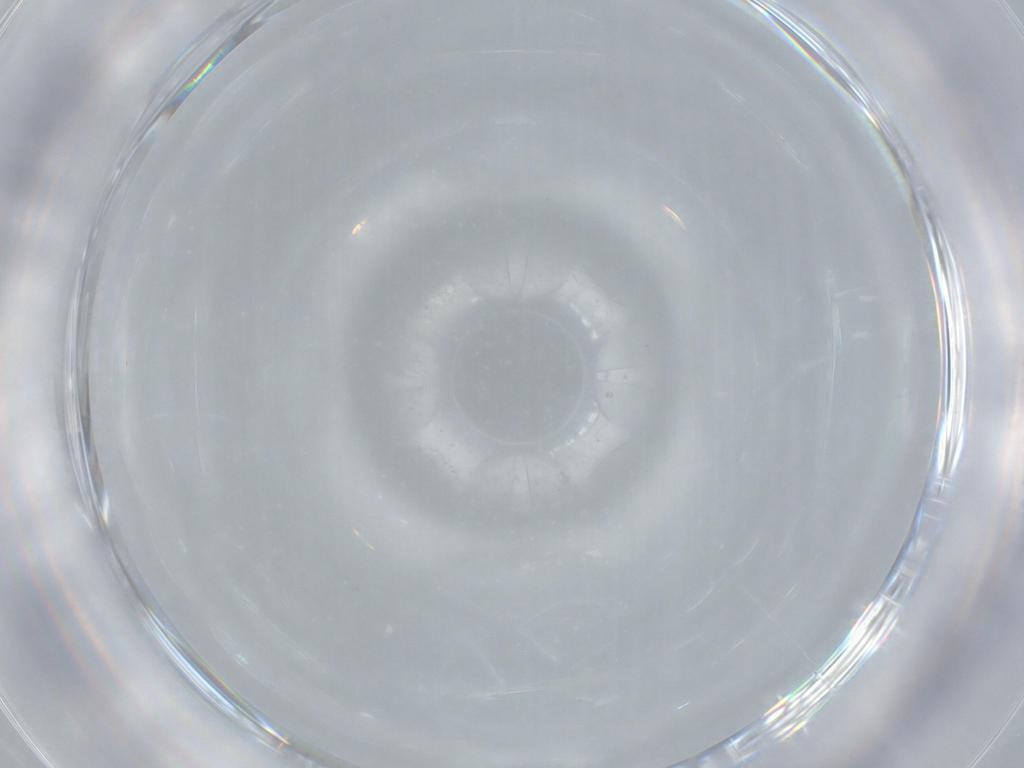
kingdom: Animalia
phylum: Arthropoda
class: Arachnida
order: Sarcoptiformes
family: Epidermoptidae
